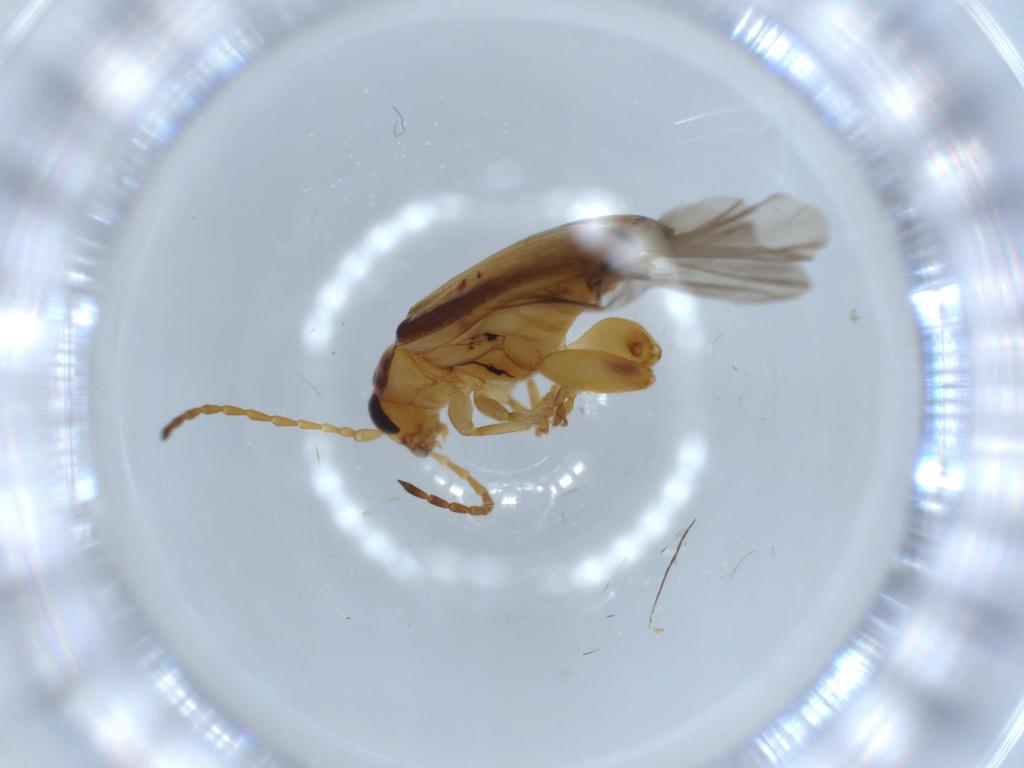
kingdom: Animalia
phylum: Arthropoda
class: Insecta
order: Coleoptera
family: Chrysomelidae
